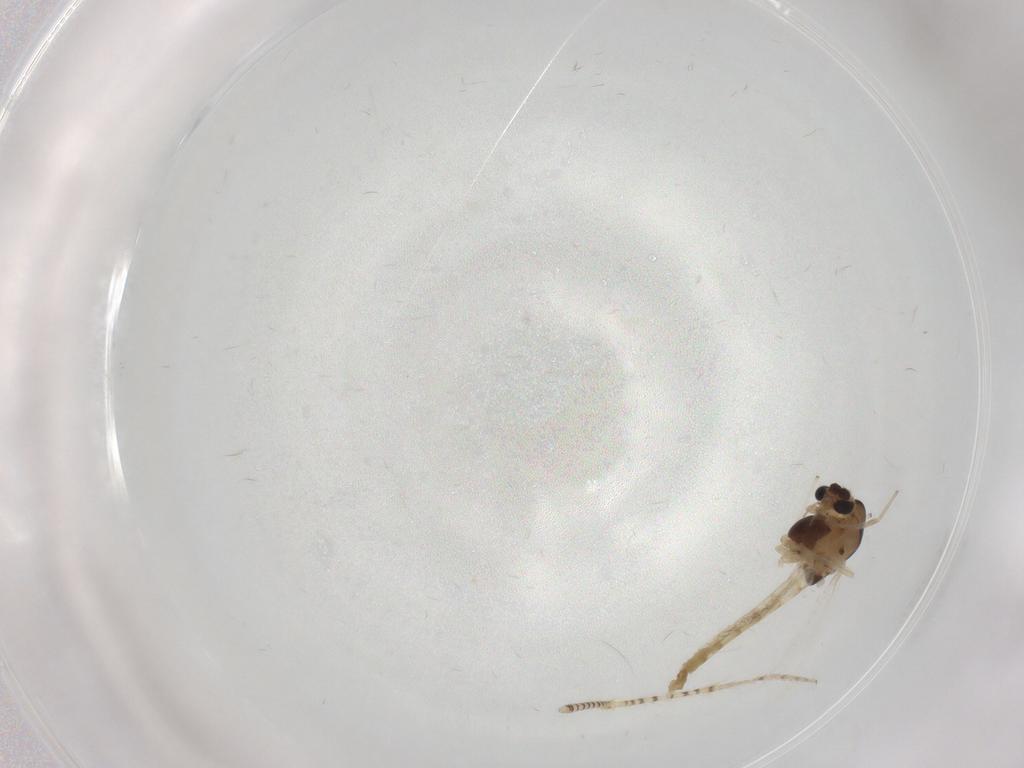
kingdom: Animalia
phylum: Arthropoda
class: Insecta
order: Diptera
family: Chironomidae
